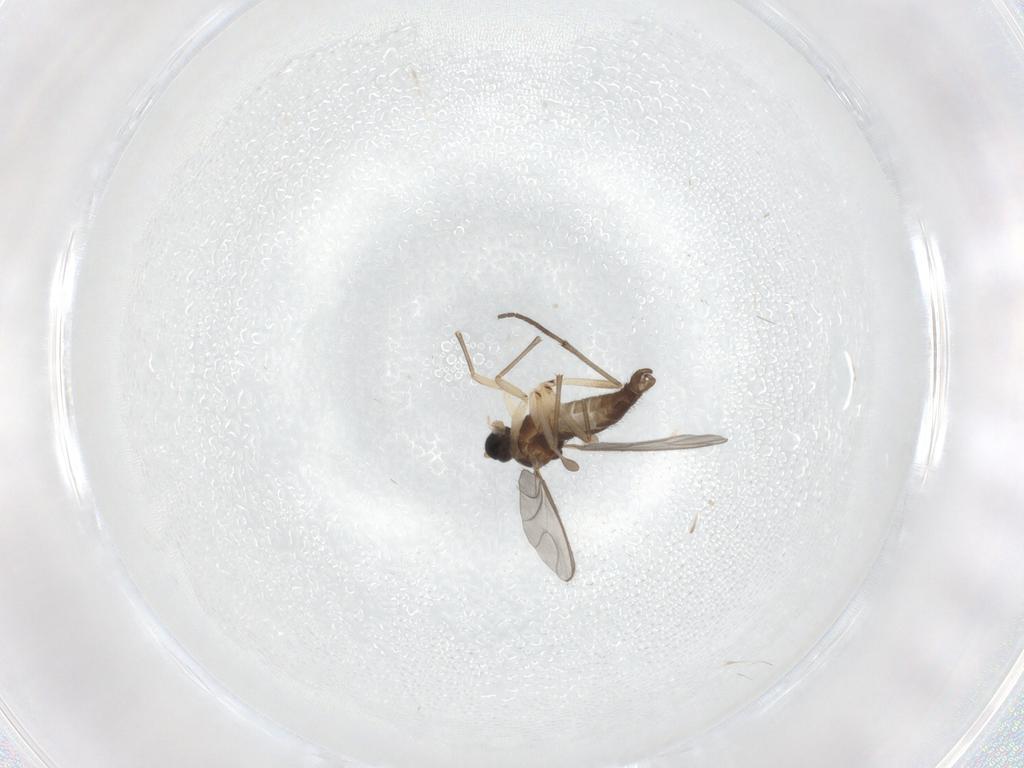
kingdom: Animalia
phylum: Arthropoda
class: Insecta
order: Diptera
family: Sciaridae
